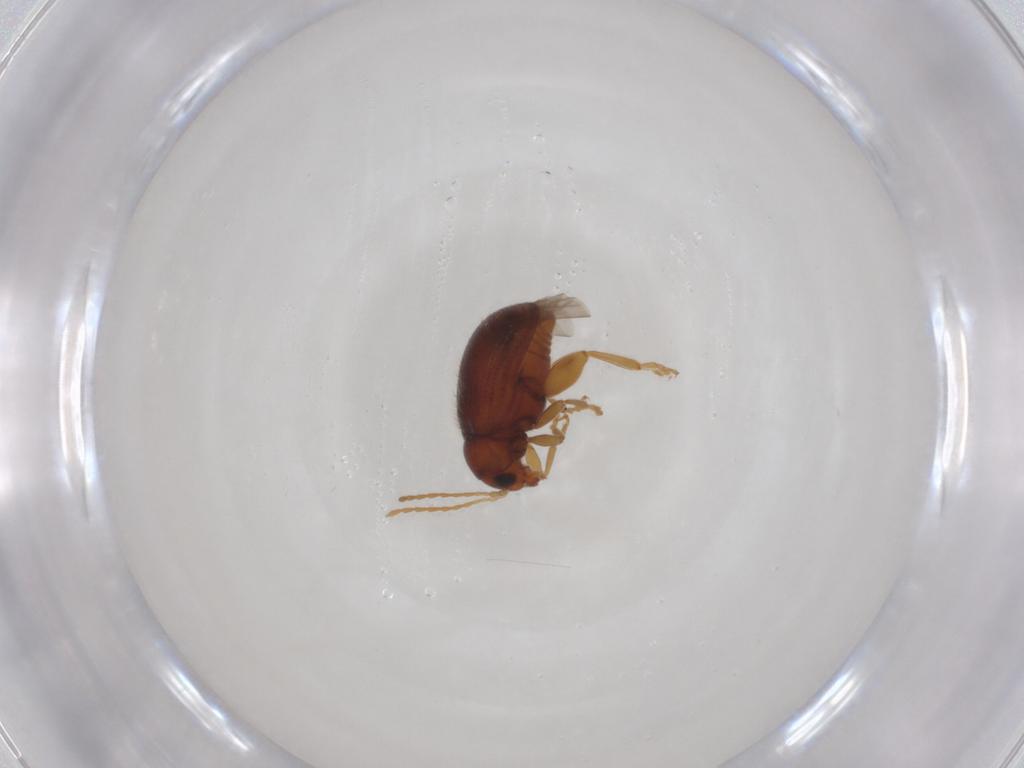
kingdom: Animalia
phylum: Arthropoda
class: Insecta
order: Coleoptera
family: Chrysomelidae
